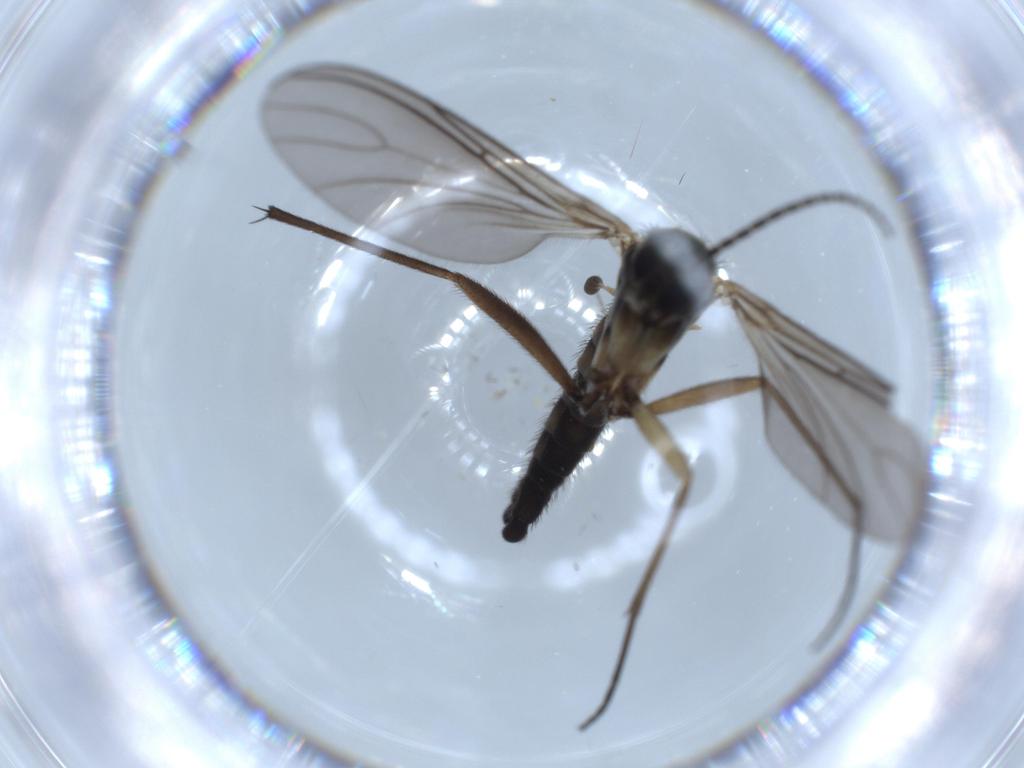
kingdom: Animalia
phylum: Arthropoda
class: Insecta
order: Diptera
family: Sciaridae
